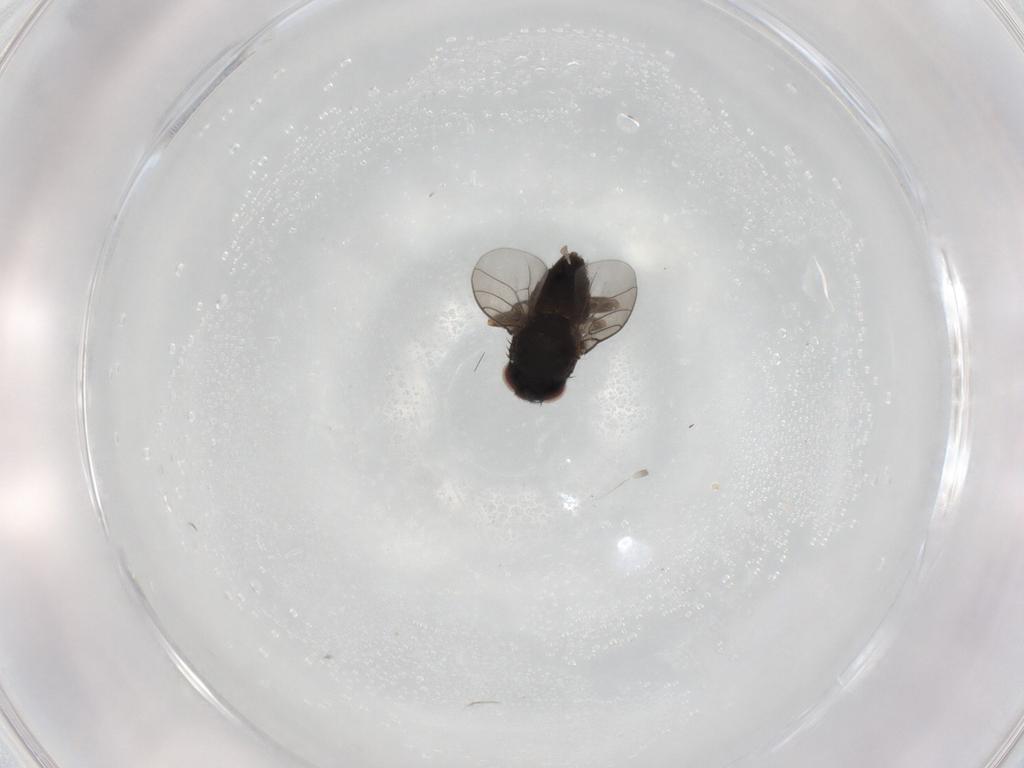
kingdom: Animalia
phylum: Arthropoda
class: Insecta
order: Diptera
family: Chloropidae
